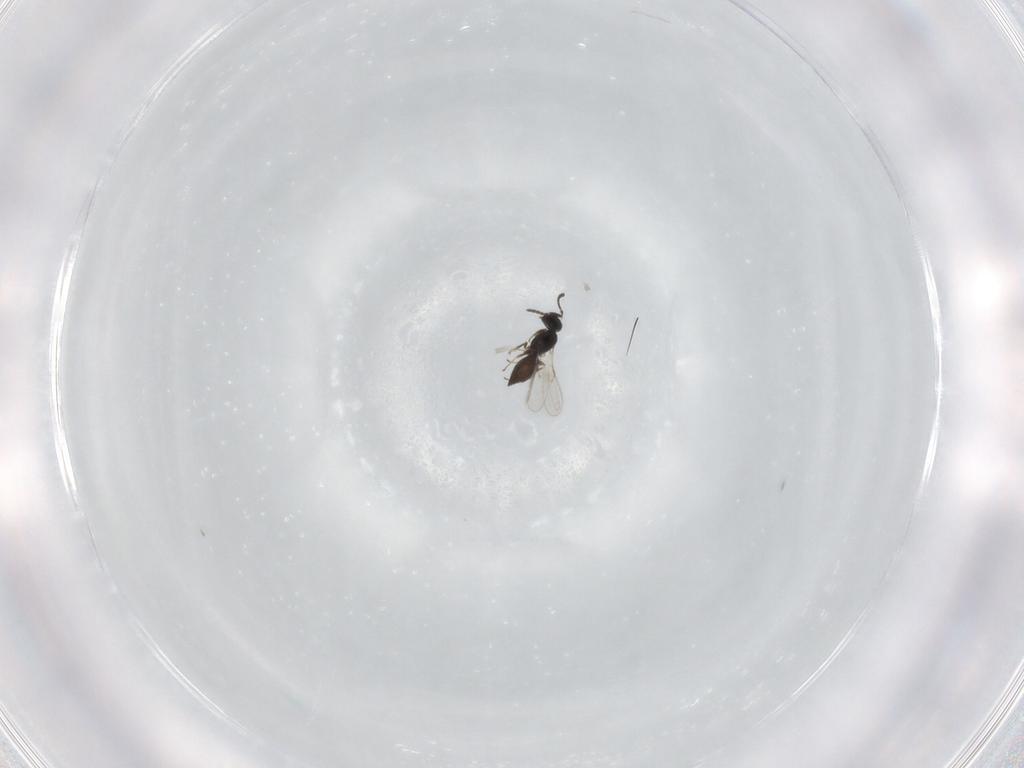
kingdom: Animalia
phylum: Arthropoda
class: Insecta
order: Hymenoptera
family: Scelionidae
